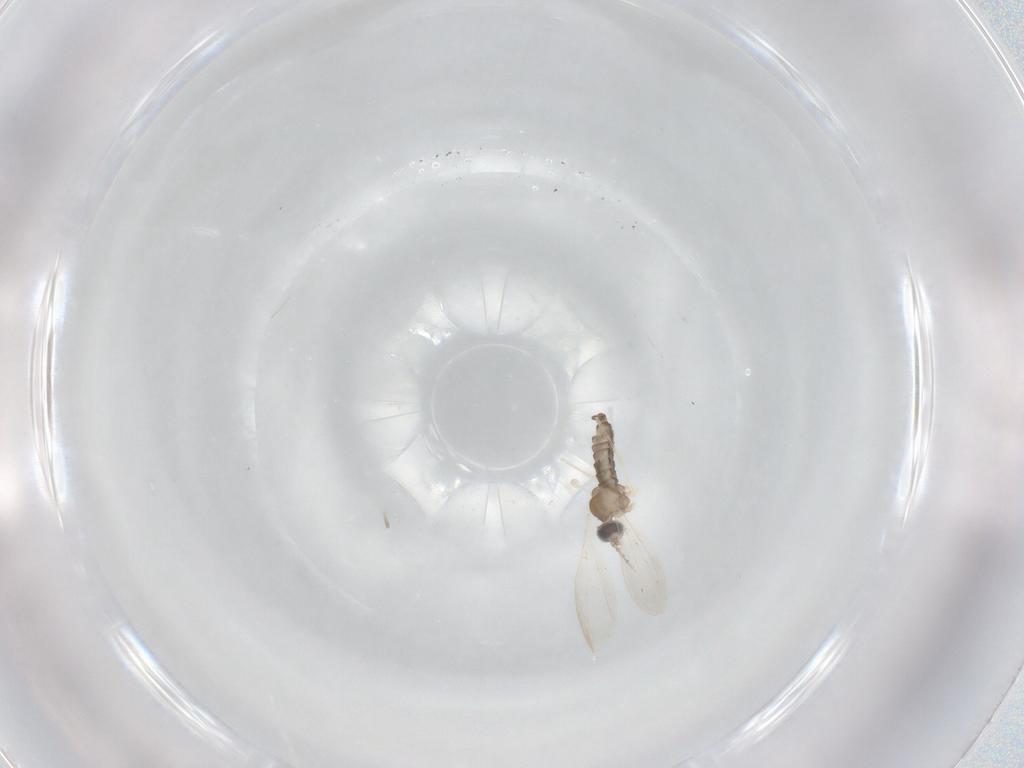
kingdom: Animalia
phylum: Arthropoda
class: Insecta
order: Diptera
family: Cecidomyiidae
